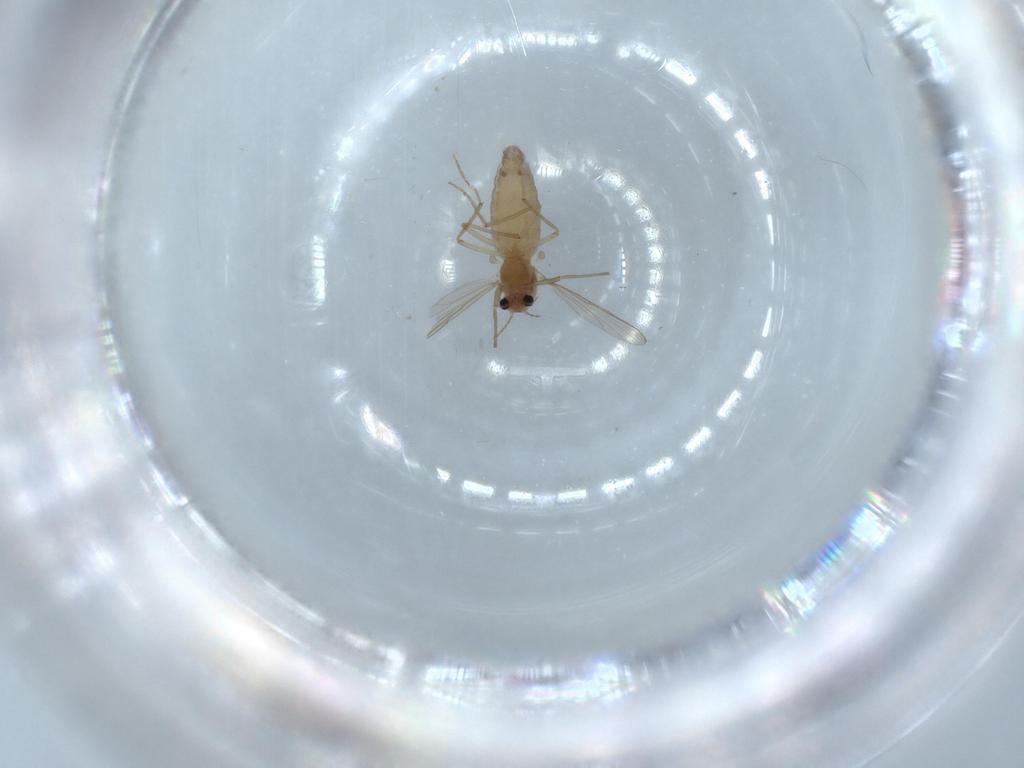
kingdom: Animalia
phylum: Arthropoda
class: Insecta
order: Diptera
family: Chironomidae
